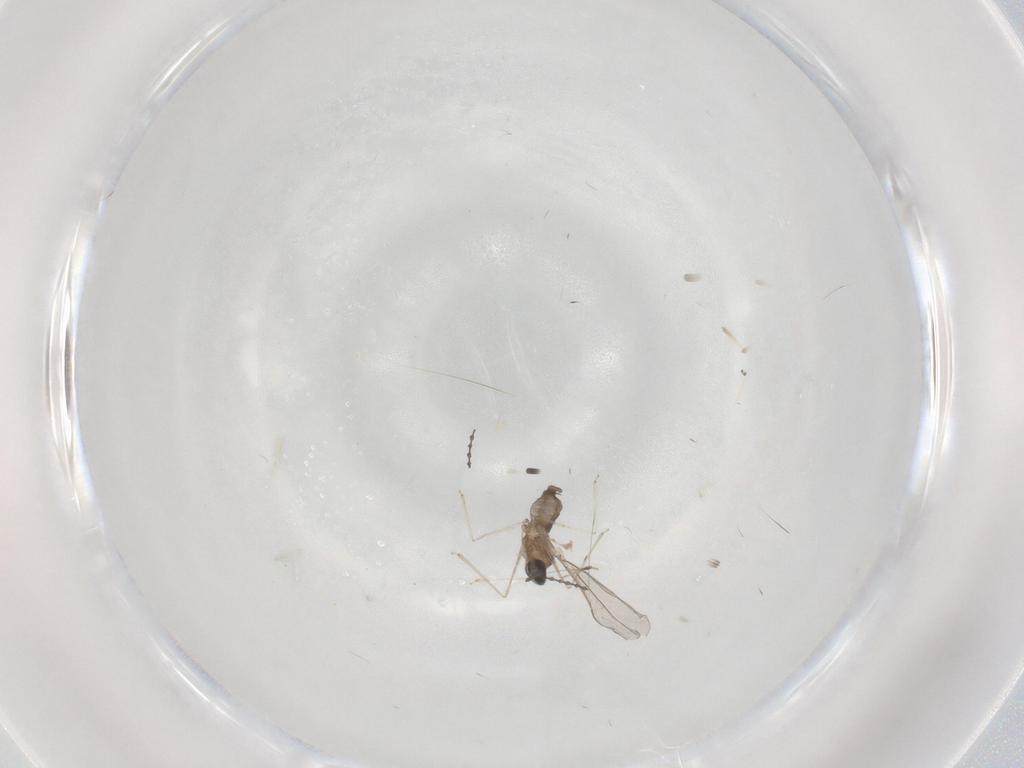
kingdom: Animalia
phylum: Arthropoda
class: Insecta
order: Diptera
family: Cecidomyiidae
